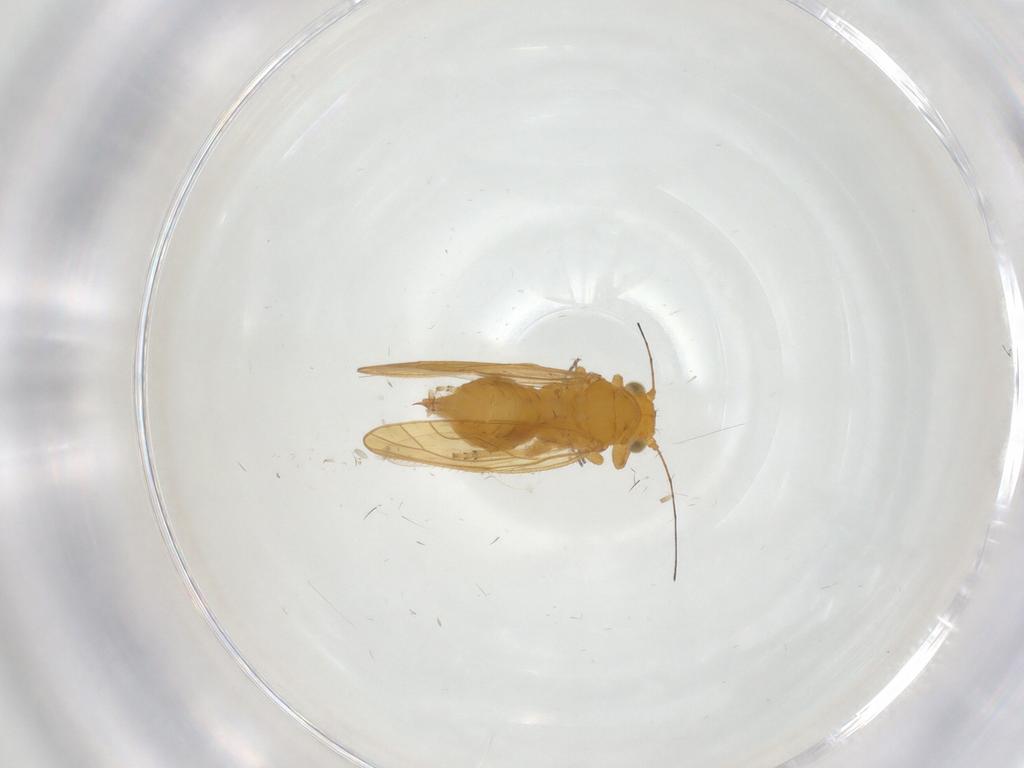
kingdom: Animalia
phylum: Arthropoda
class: Insecta
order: Hemiptera
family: Psyllidae
